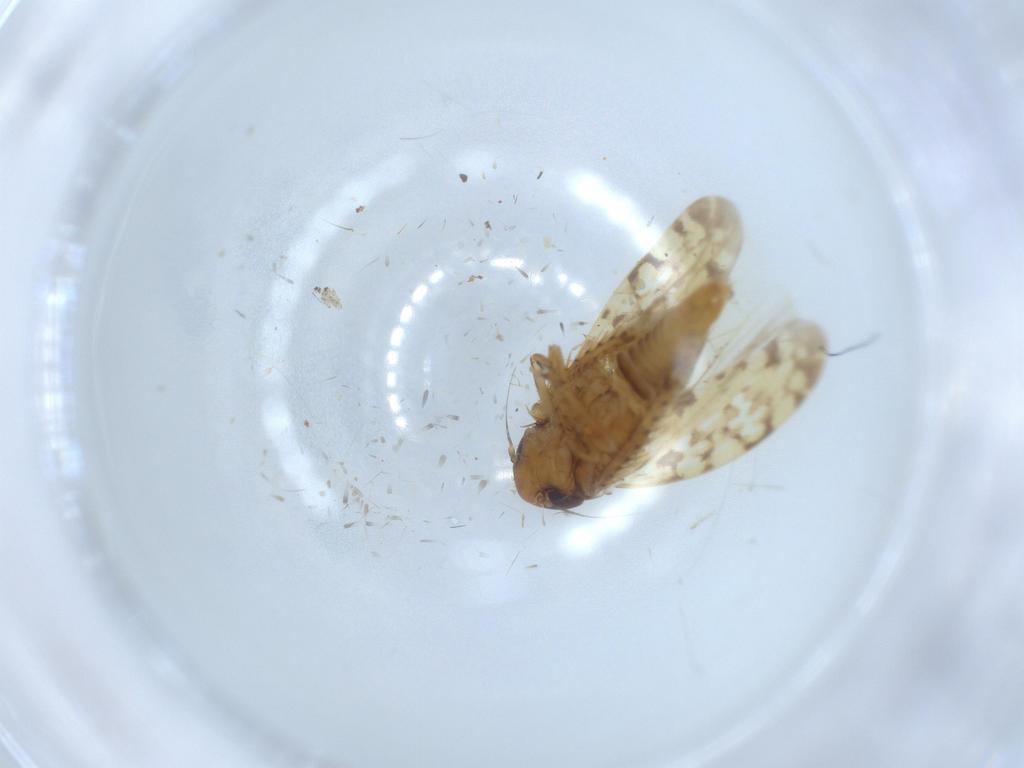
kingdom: Animalia
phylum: Arthropoda
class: Insecta
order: Hemiptera
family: Cicadellidae
